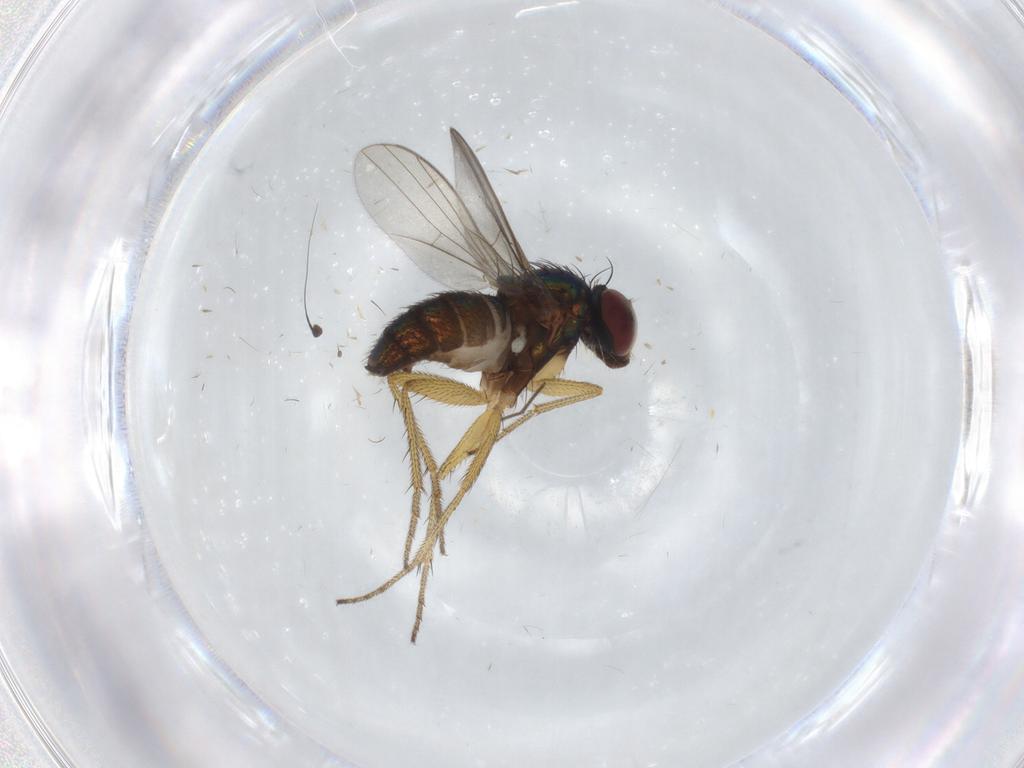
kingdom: Animalia
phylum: Arthropoda
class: Insecta
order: Diptera
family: Dolichopodidae
